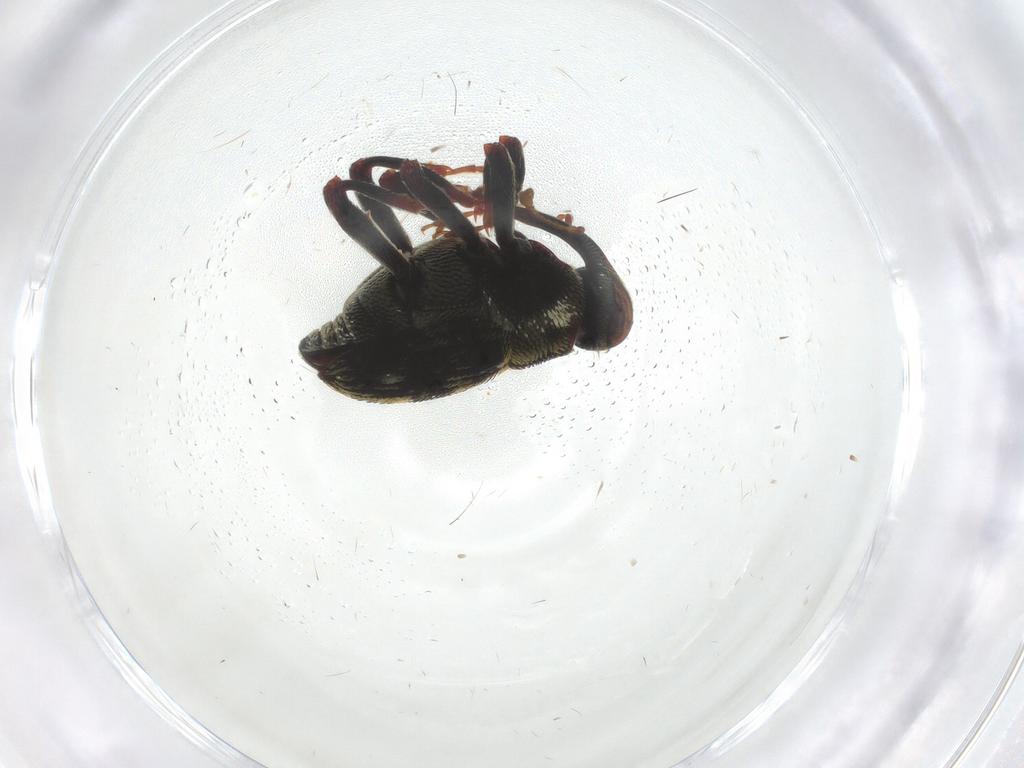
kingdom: Animalia
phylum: Arthropoda
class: Insecta
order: Coleoptera
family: Curculionidae
